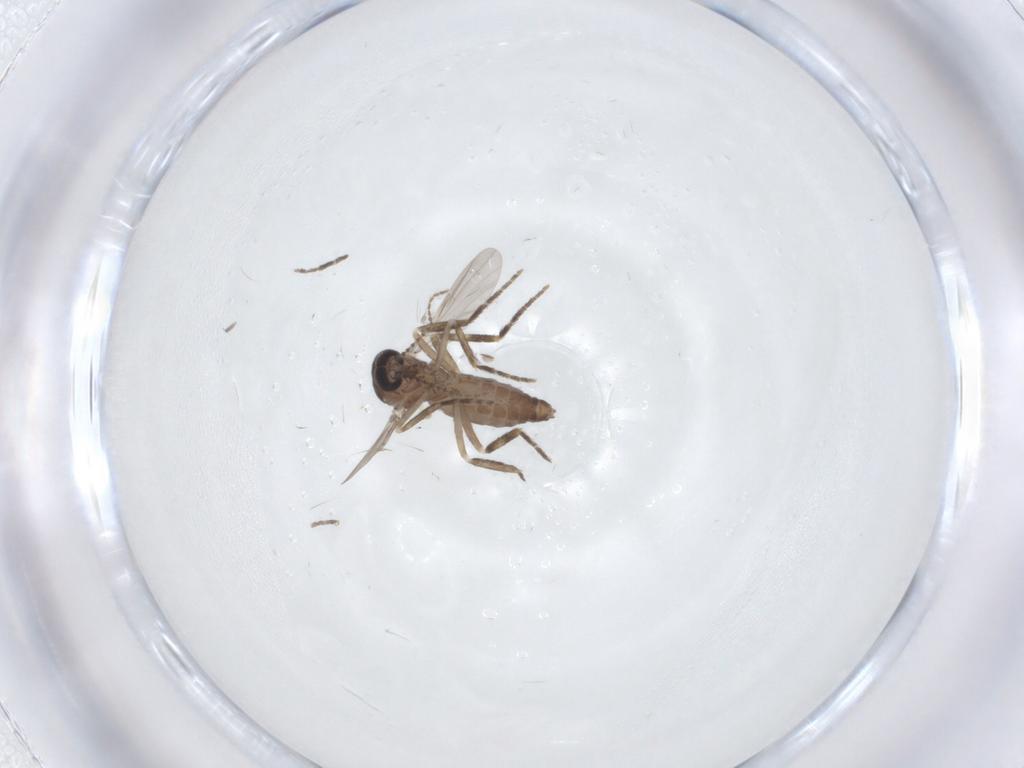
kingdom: Animalia
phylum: Arthropoda
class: Insecta
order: Diptera
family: Ceratopogonidae
